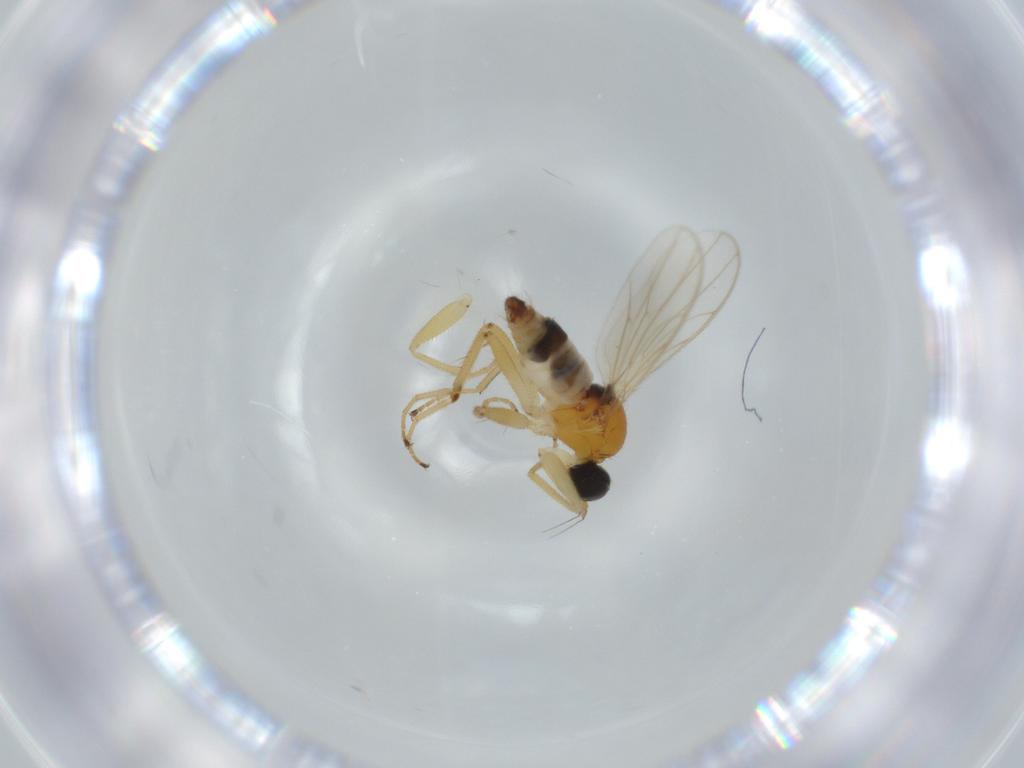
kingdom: Animalia
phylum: Arthropoda
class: Insecta
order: Diptera
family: Hybotidae
